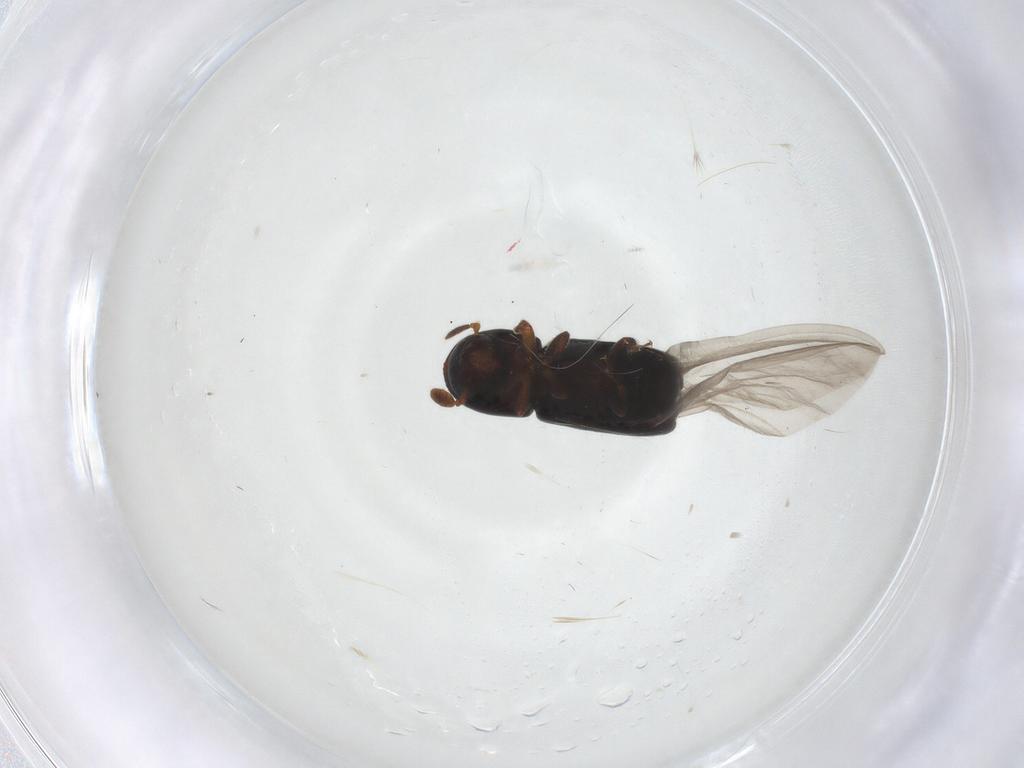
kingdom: Animalia
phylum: Arthropoda
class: Insecta
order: Coleoptera
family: Curculionidae
